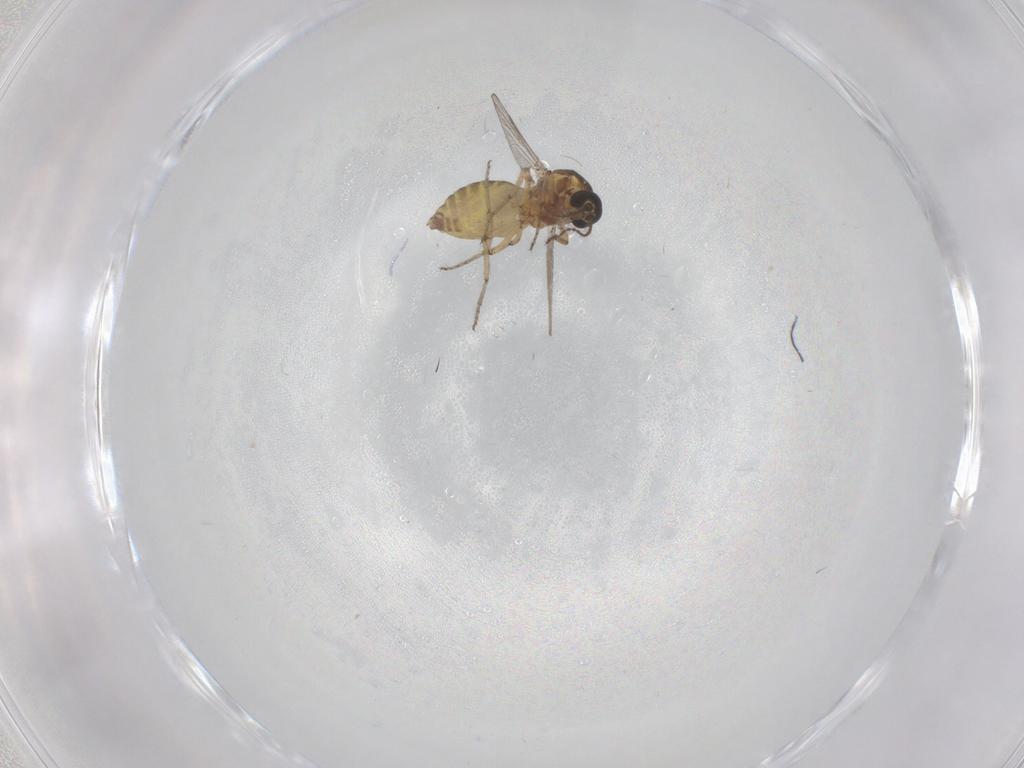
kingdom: Animalia
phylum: Arthropoda
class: Insecta
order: Diptera
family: Ceratopogonidae
